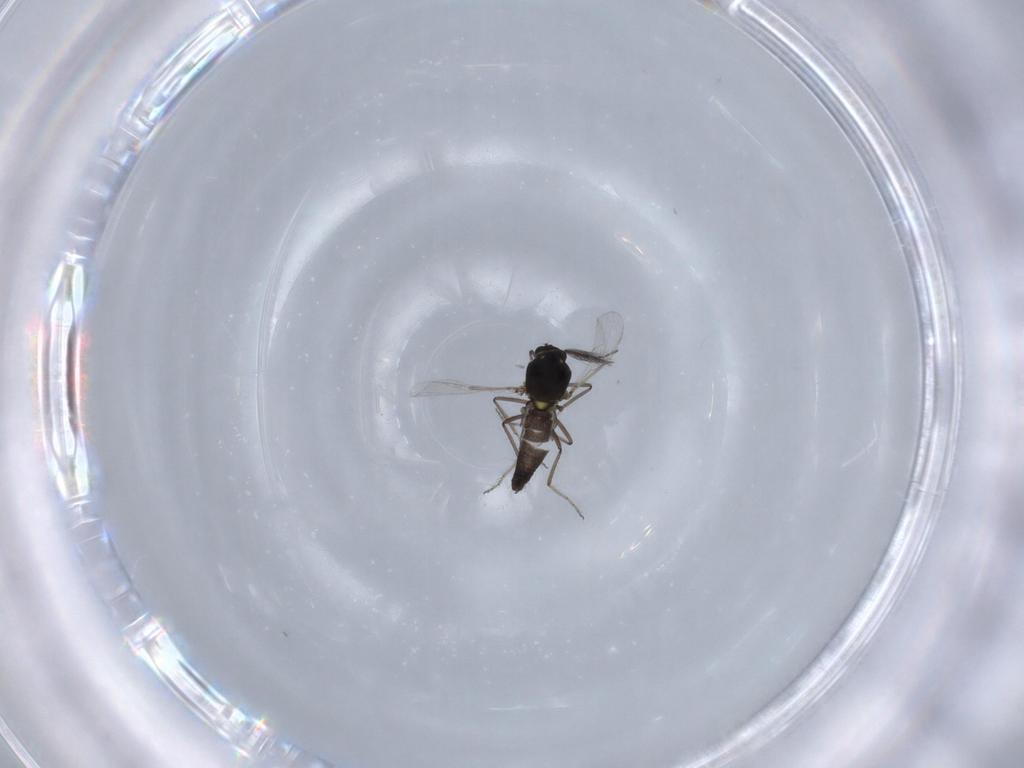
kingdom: Animalia
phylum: Arthropoda
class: Insecta
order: Diptera
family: Ceratopogonidae
